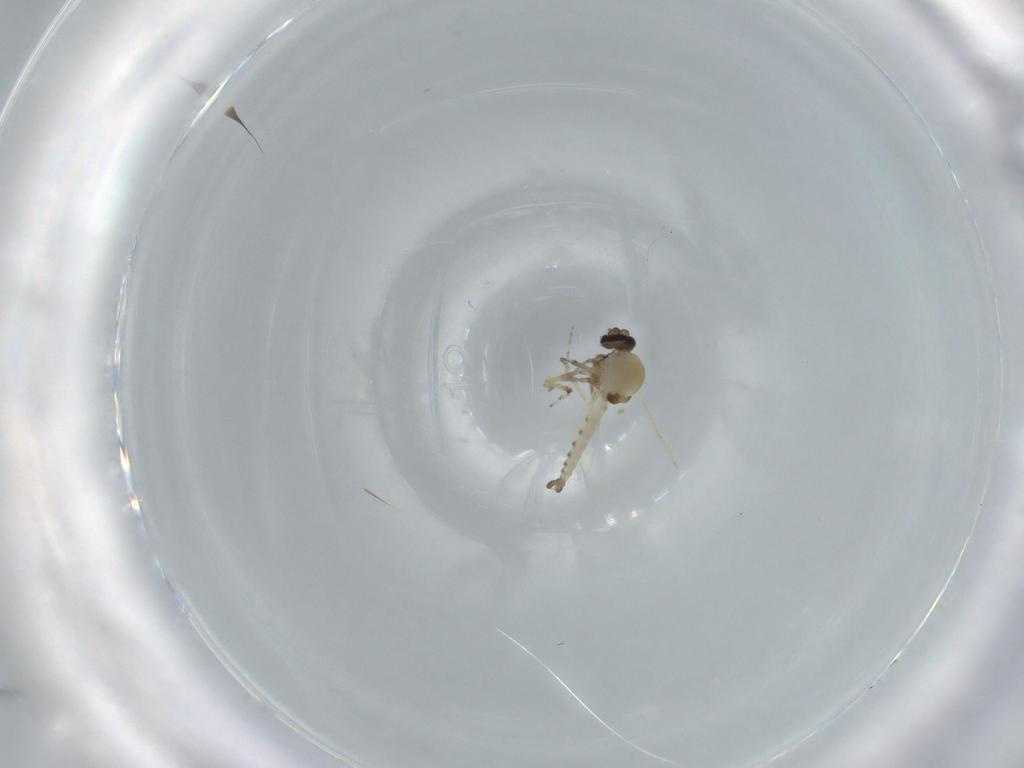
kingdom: Animalia
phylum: Arthropoda
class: Insecta
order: Diptera
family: Ceratopogonidae
